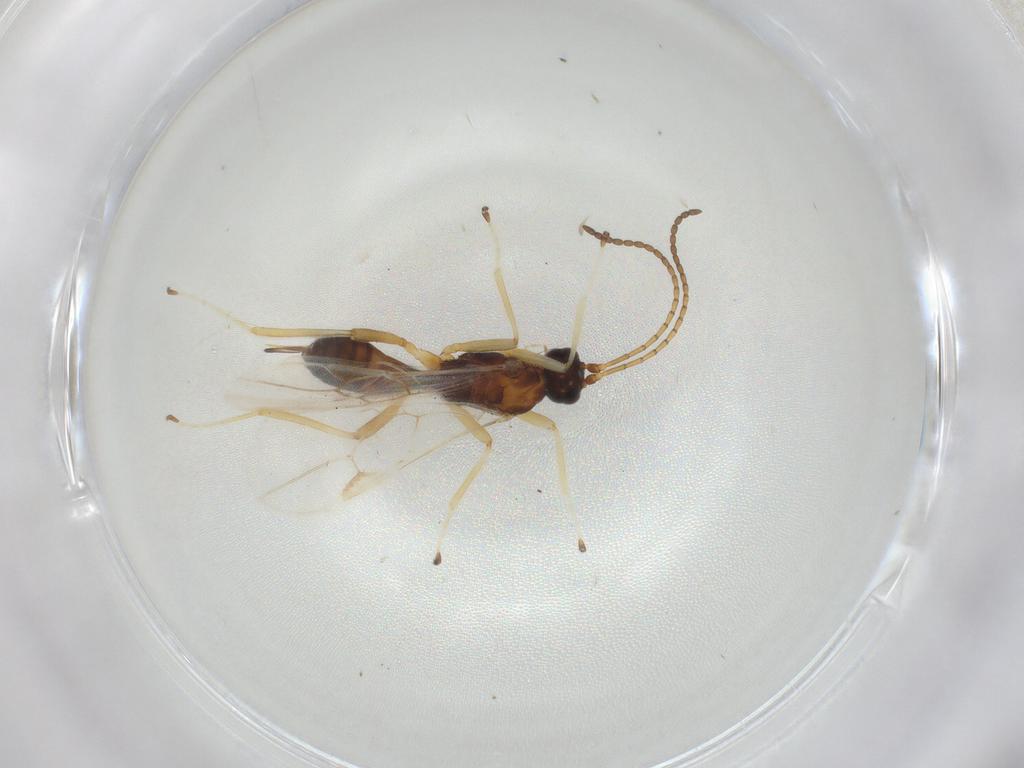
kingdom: Animalia
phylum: Arthropoda
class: Insecta
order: Hymenoptera
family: Braconidae
